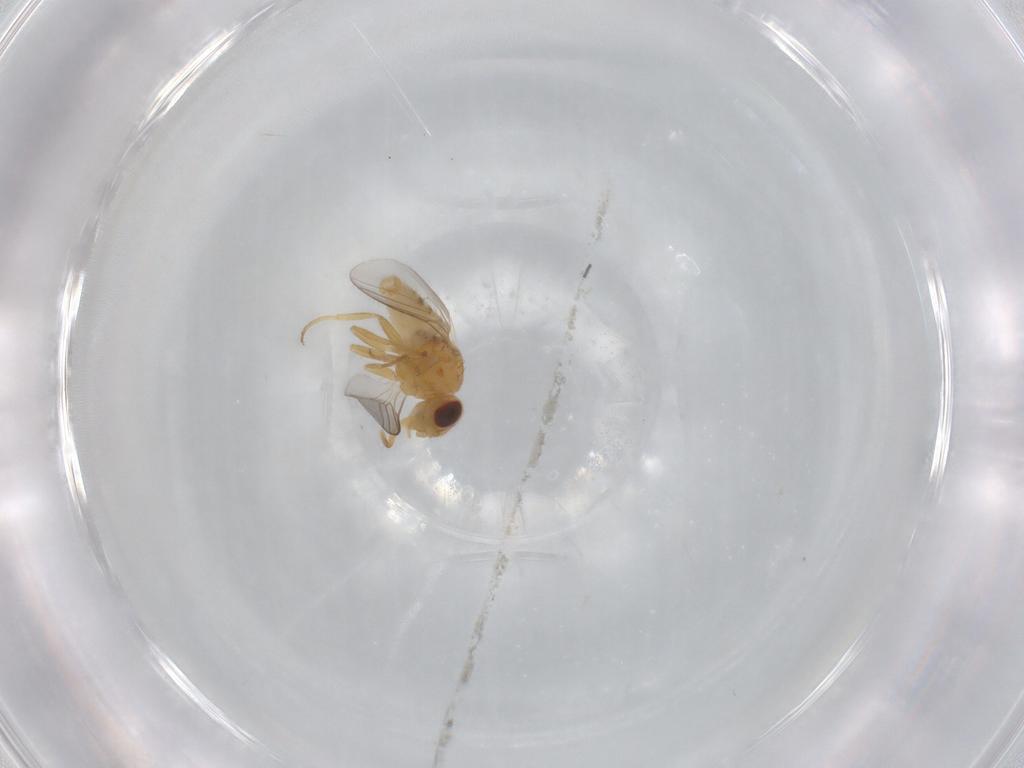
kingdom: Animalia
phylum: Arthropoda
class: Insecta
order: Diptera
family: Chloropidae
